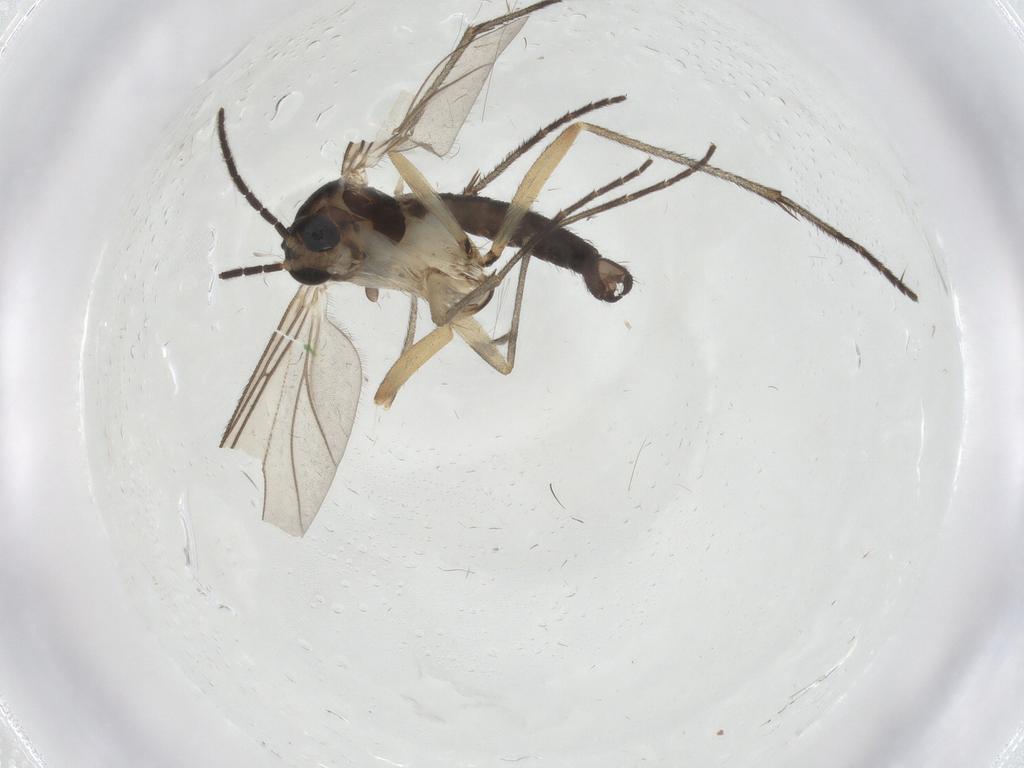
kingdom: Animalia
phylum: Arthropoda
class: Insecta
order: Diptera
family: Sciaridae
